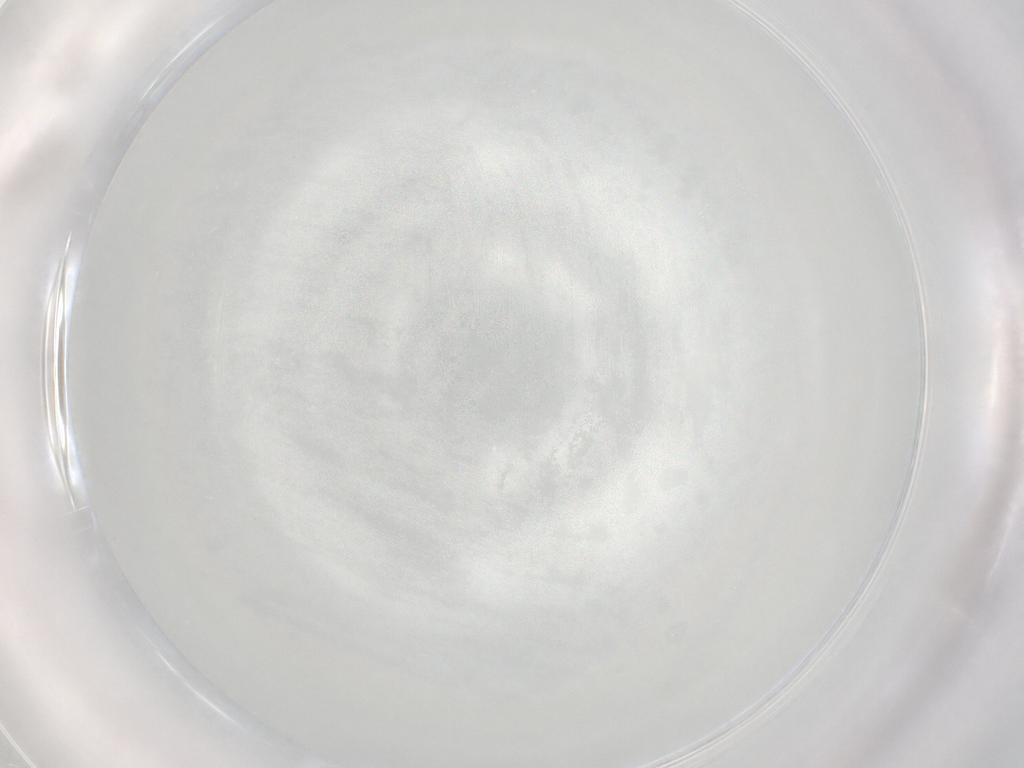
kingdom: Animalia
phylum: Arthropoda
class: Insecta
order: Diptera
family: Psychodidae
